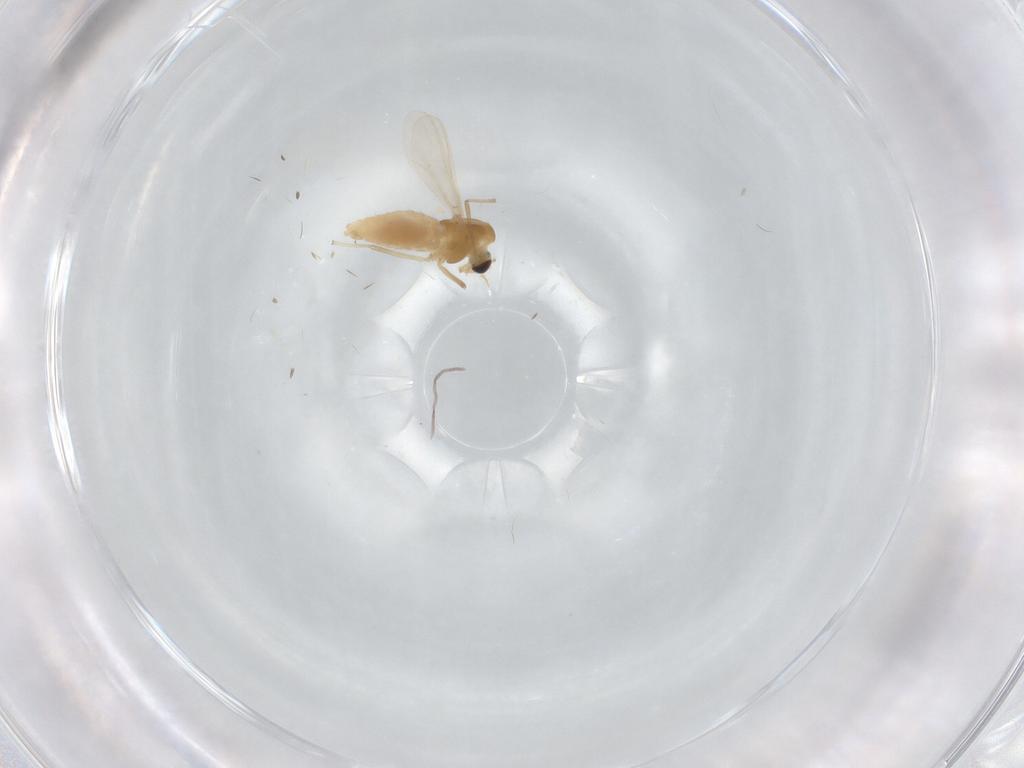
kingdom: Animalia
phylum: Arthropoda
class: Insecta
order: Diptera
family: Chironomidae
